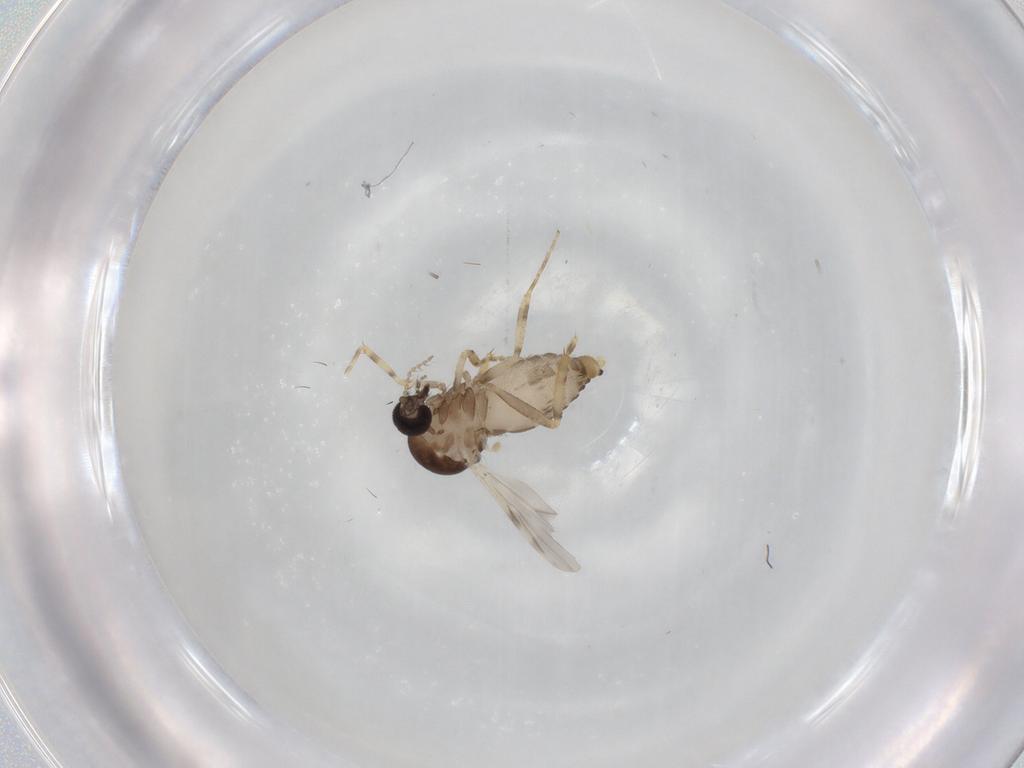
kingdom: Animalia
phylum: Arthropoda
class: Insecta
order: Diptera
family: Ceratopogonidae
